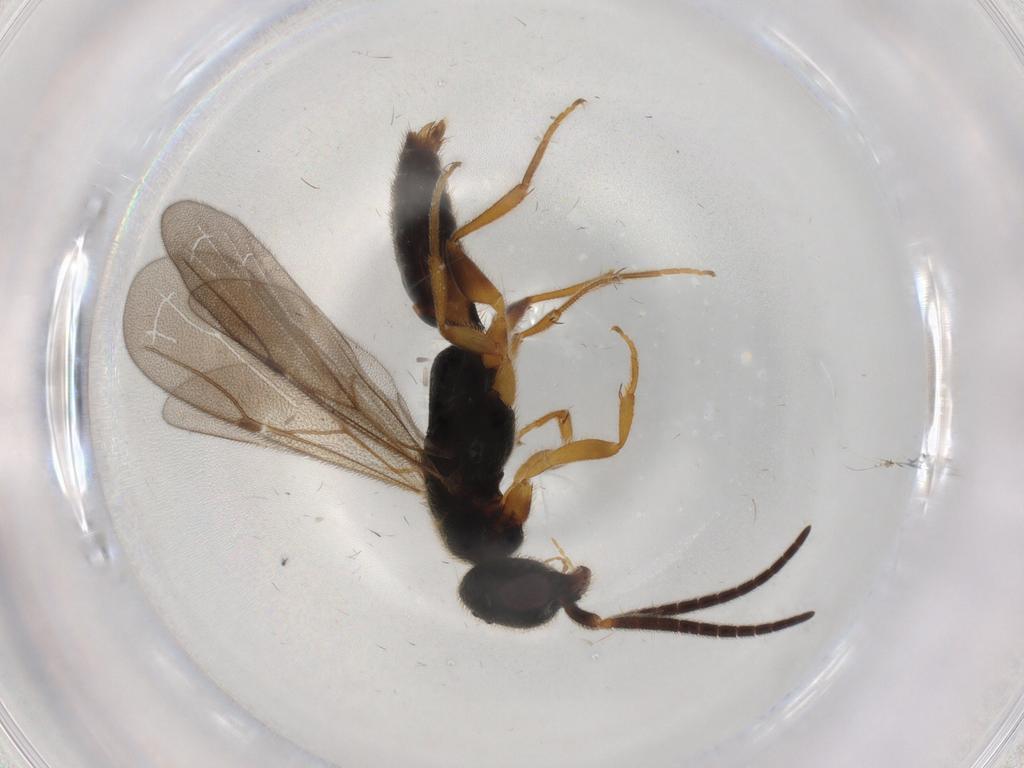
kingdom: Animalia
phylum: Arthropoda
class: Insecta
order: Hymenoptera
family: Bethylidae
